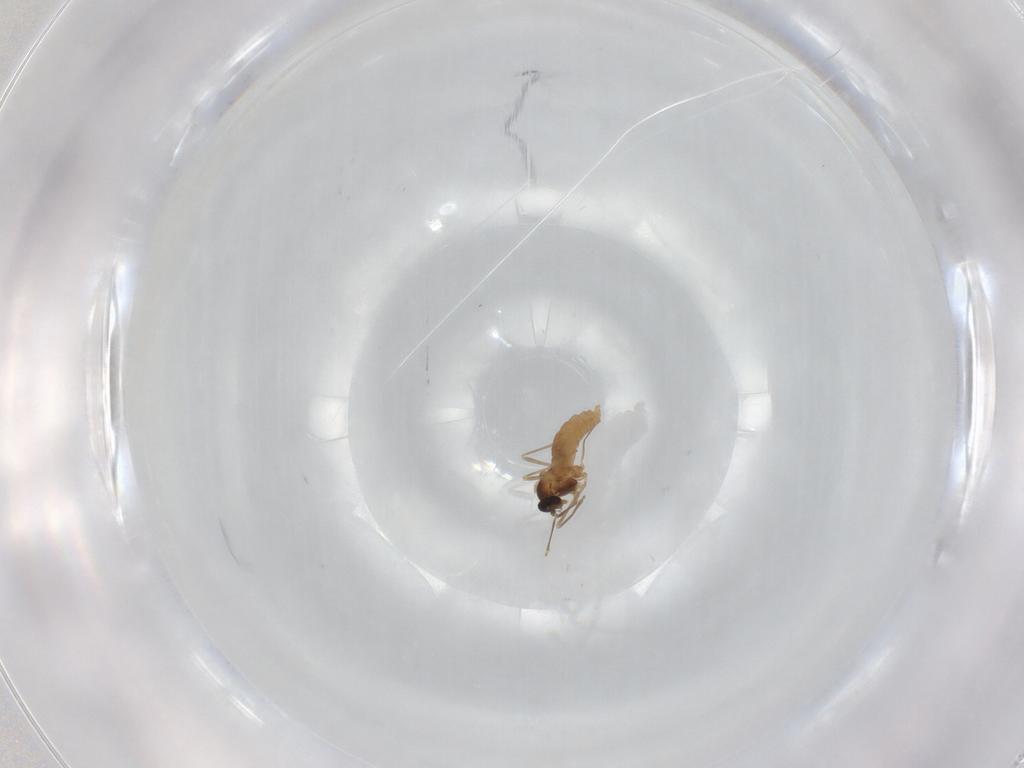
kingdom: Animalia
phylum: Arthropoda
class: Insecta
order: Diptera
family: Cecidomyiidae
